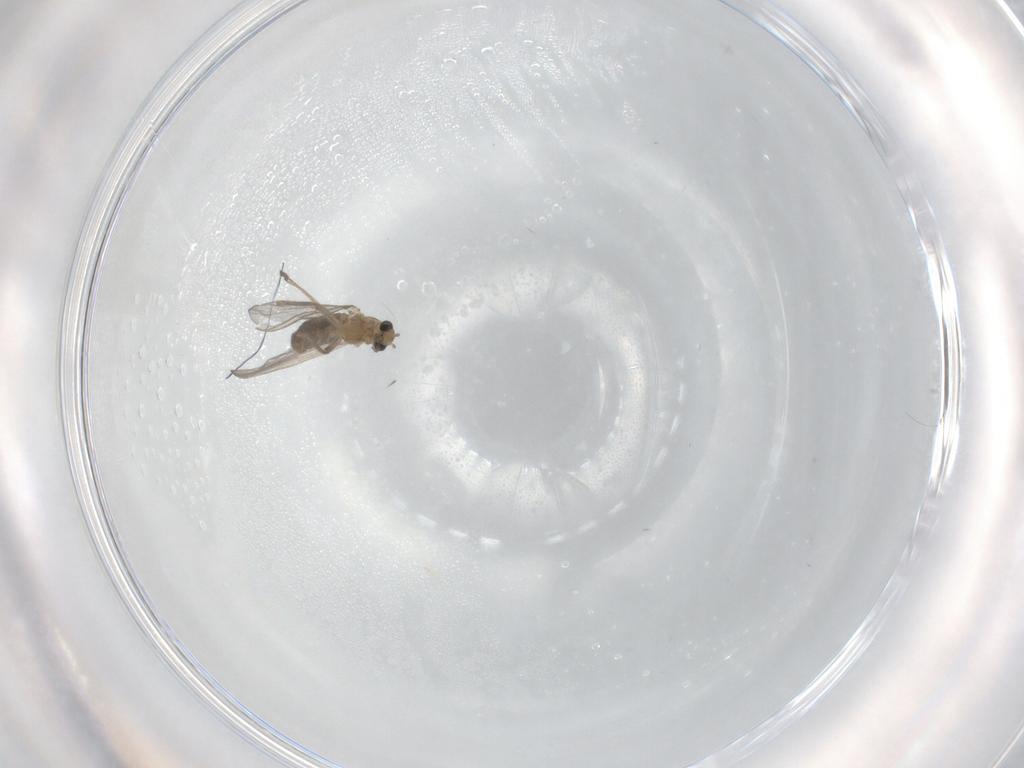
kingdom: Animalia
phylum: Arthropoda
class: Insecta
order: Diptera
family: Chironomidae
